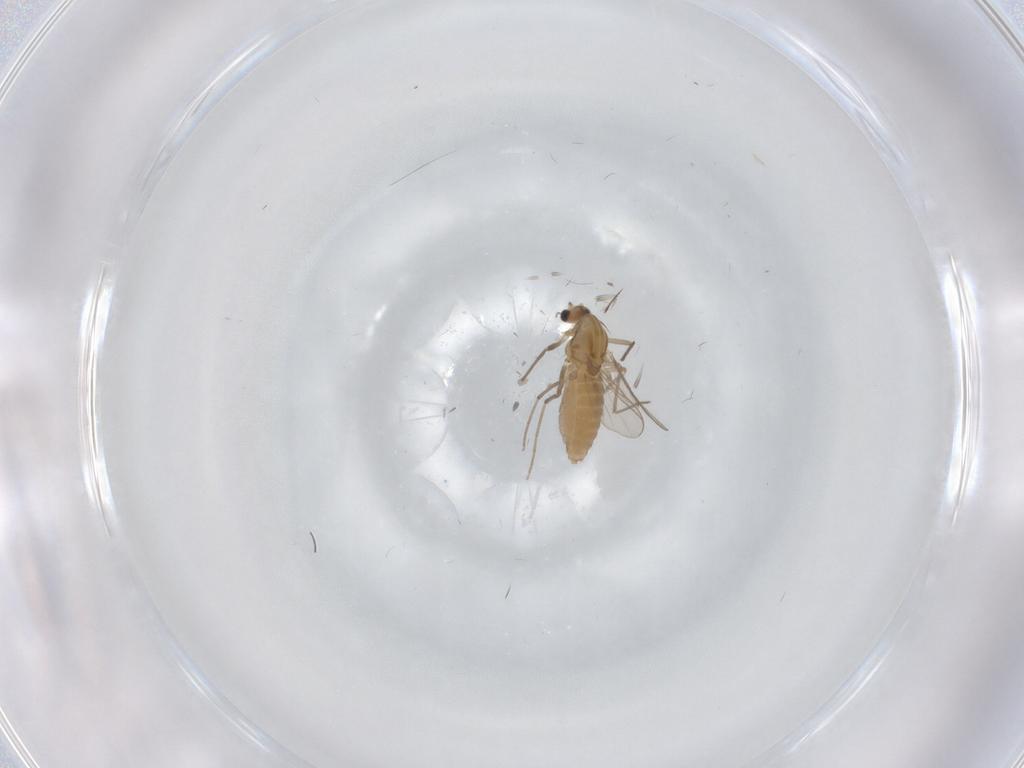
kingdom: Animalia
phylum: Arthropoda
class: Insecta
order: Diptera
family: Chironomidae
